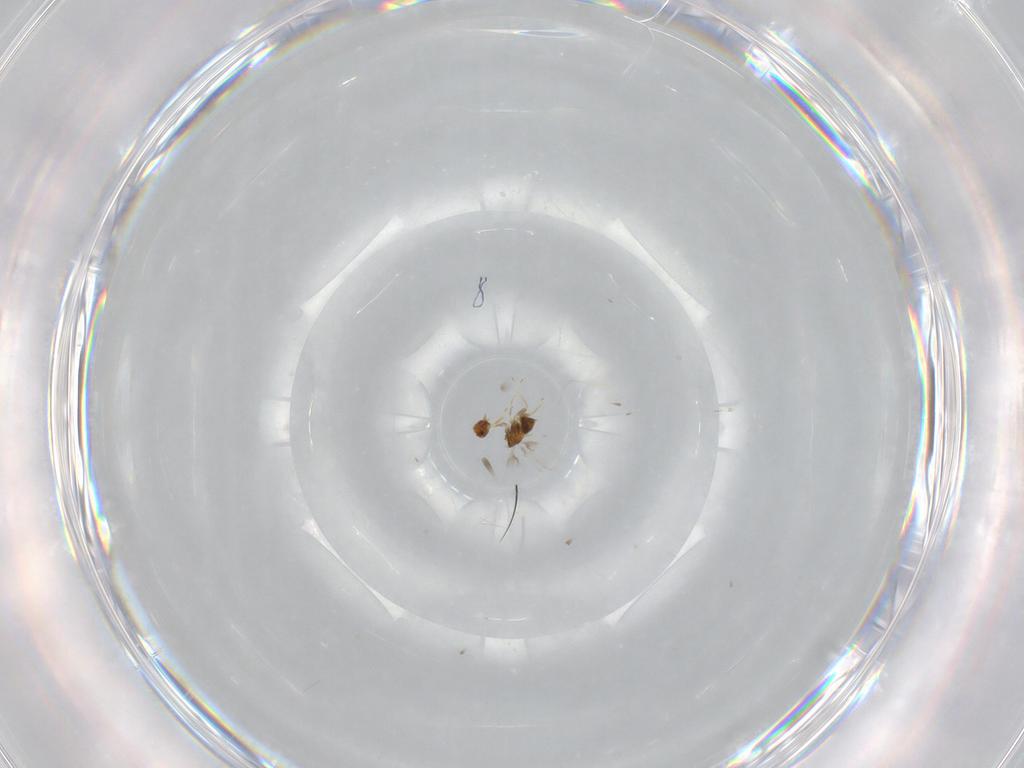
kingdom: Animalia
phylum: Arthropoda
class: Insecta
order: Hymenoptera
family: Trichogrammatidae
